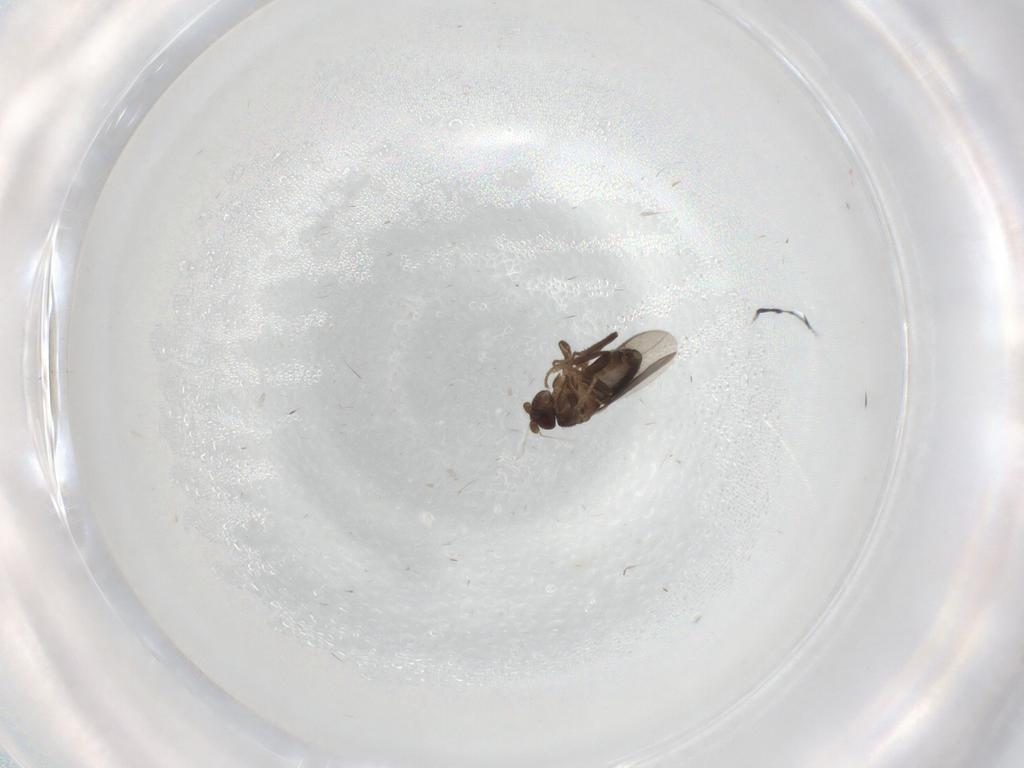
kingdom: Animalia
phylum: Arthropoda
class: Insecta
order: Diptera
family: Sphaeroceridae
